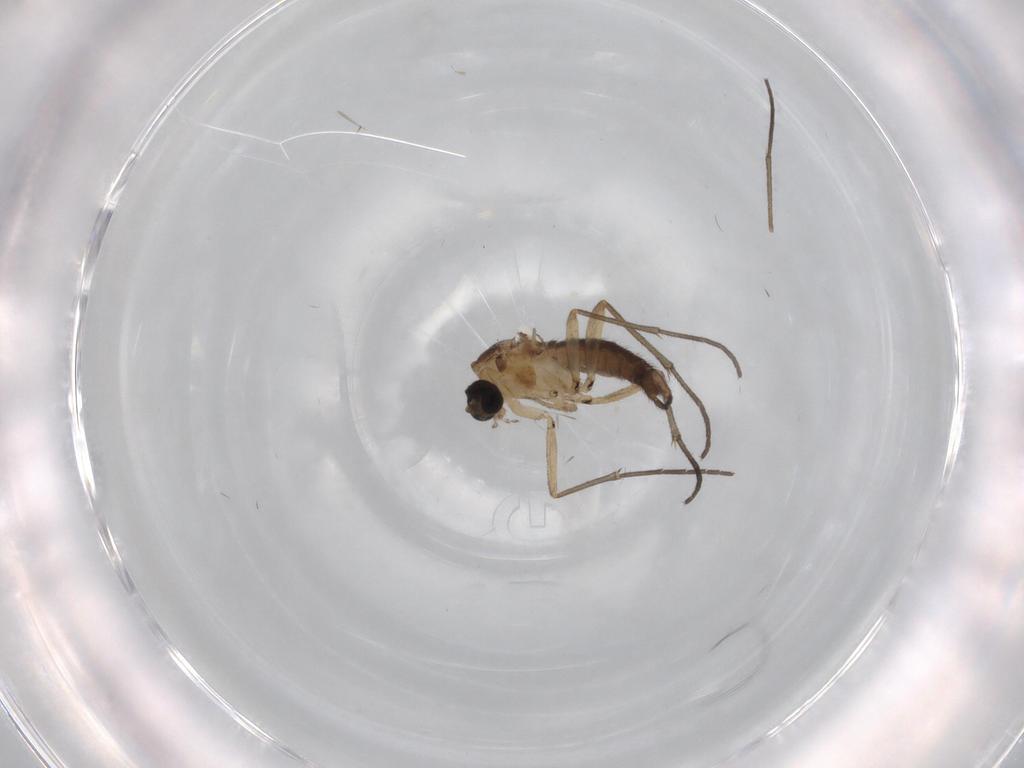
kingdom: Animalia
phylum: Arthropoda
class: Insecta
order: Diptera
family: Sciaridae
